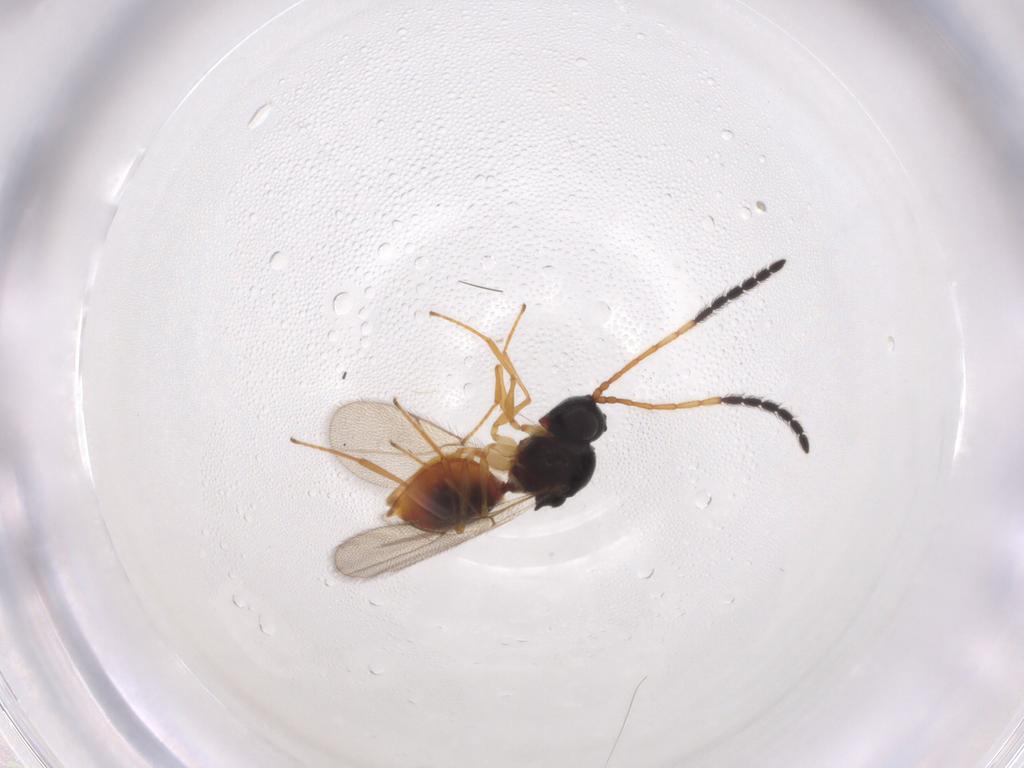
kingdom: Animalia
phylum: Arthropoda
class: Insecta
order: Hymenoptera
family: Figitidae
